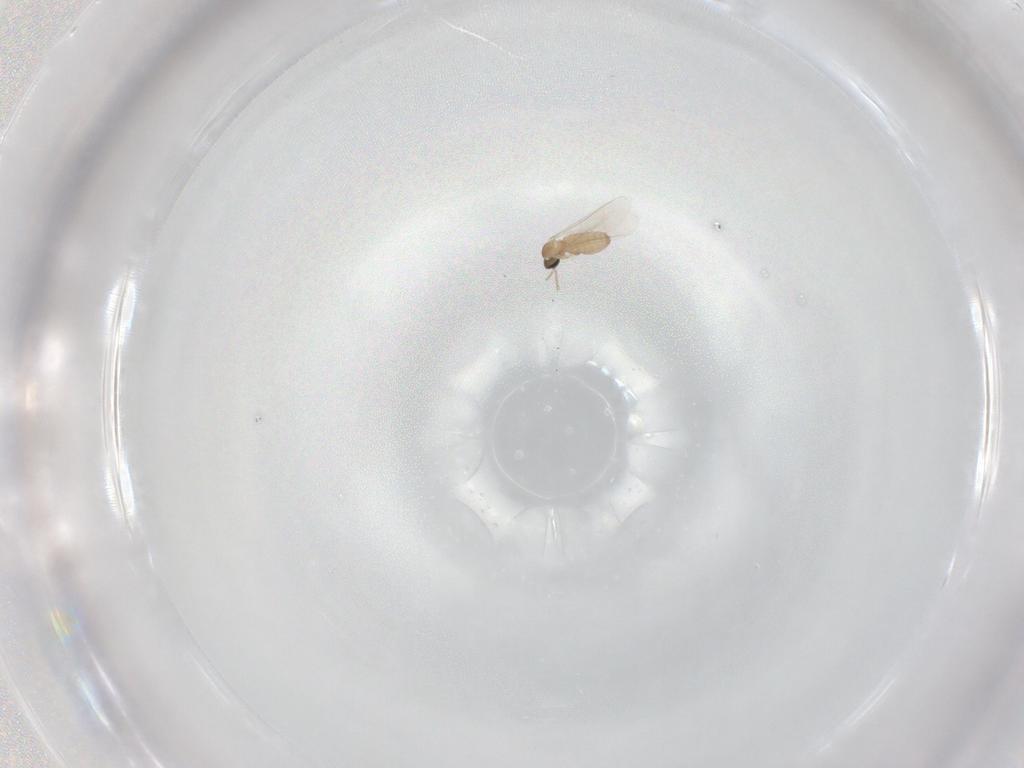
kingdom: Animalia
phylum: Arthropoda
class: Insecta
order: Diptera
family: Cecidomyiidae
